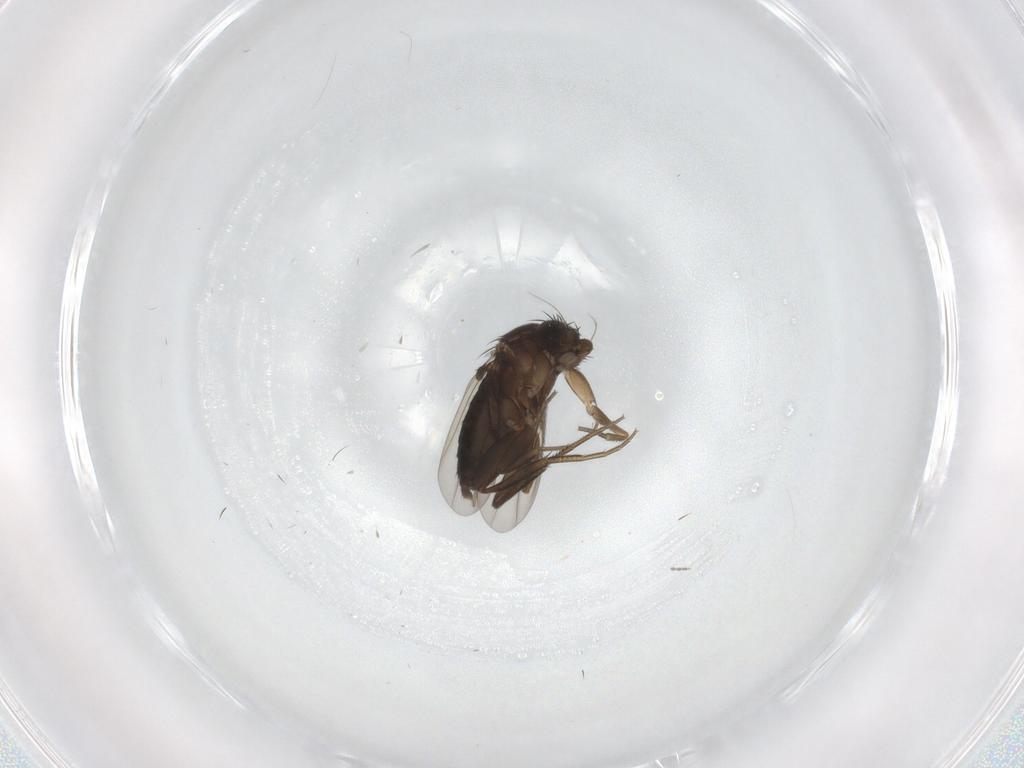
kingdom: Animalia
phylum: Arthropoda
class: Insecta
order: Diptera
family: Phoridae
